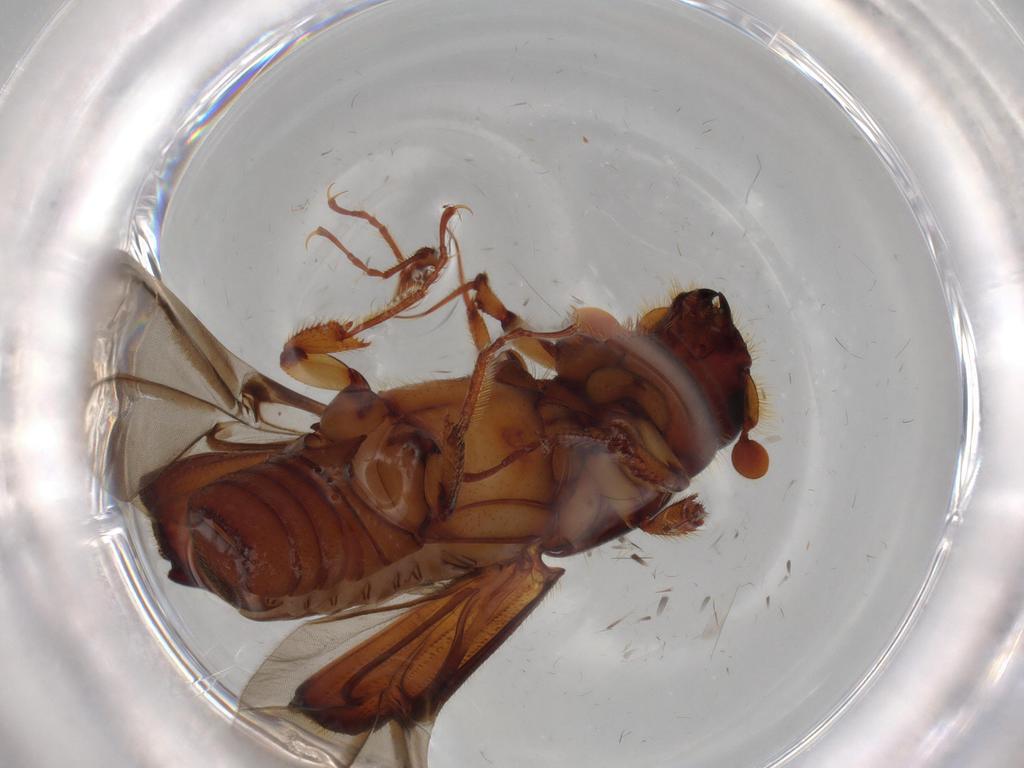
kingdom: Animalia
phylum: Arthropoda
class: Insecta
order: Coleoptera
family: Curculionidae
